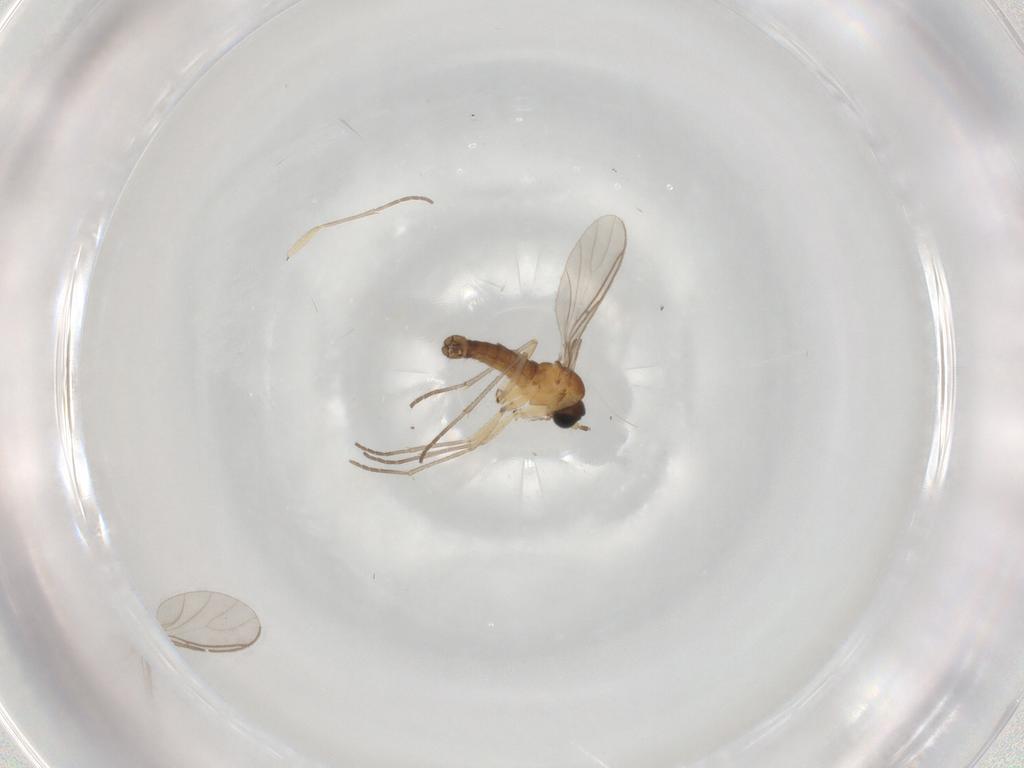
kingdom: Animalia
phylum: Arthropoda
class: Insecta
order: Diptera
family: Sciaridae
